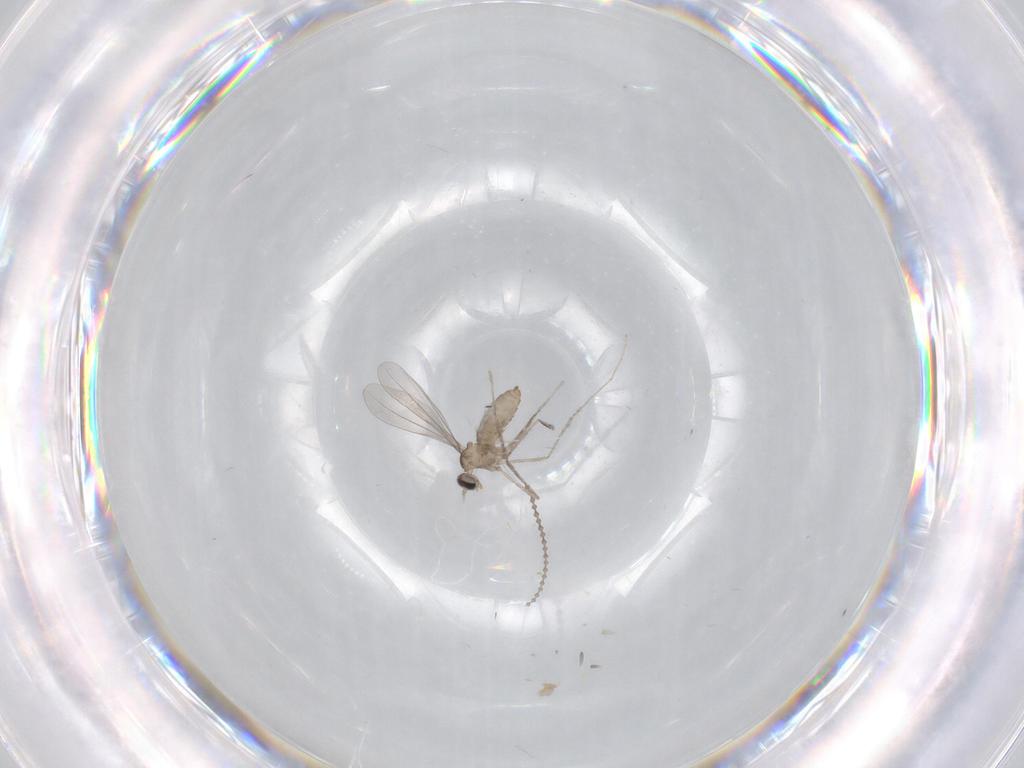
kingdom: Animalia
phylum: Arthropoda
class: Insecta
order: Diptera
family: Cecidomyiidae
